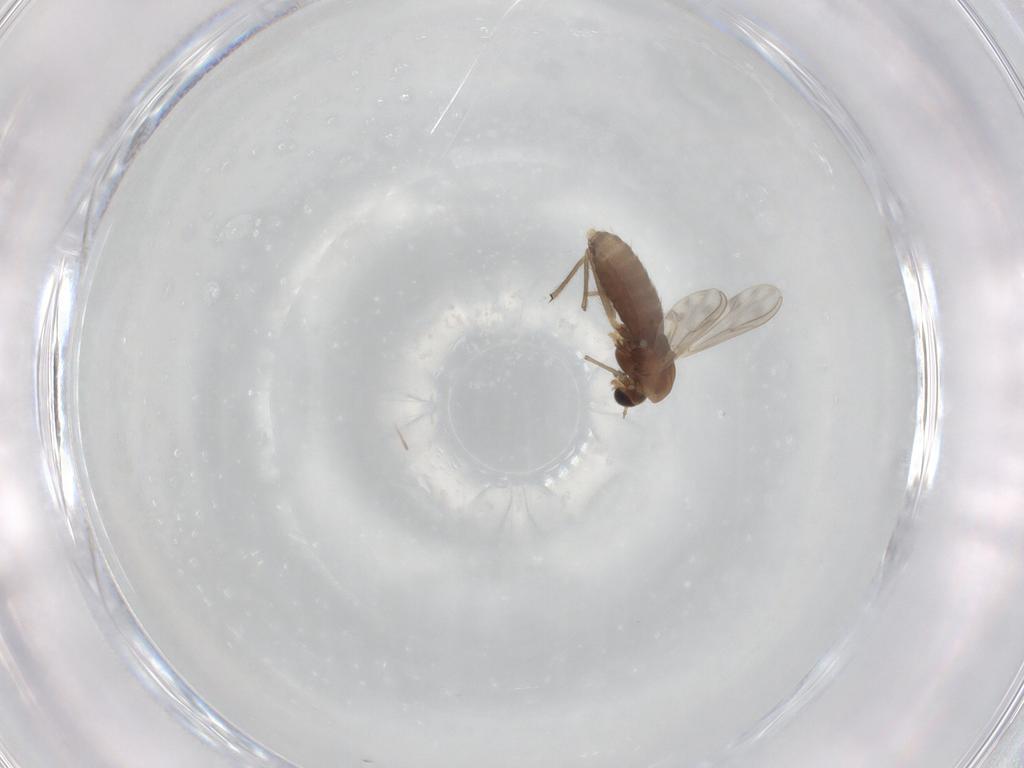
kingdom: Animalia
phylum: Arthropoda
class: Insecta
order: Diptera
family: Chironomidae
